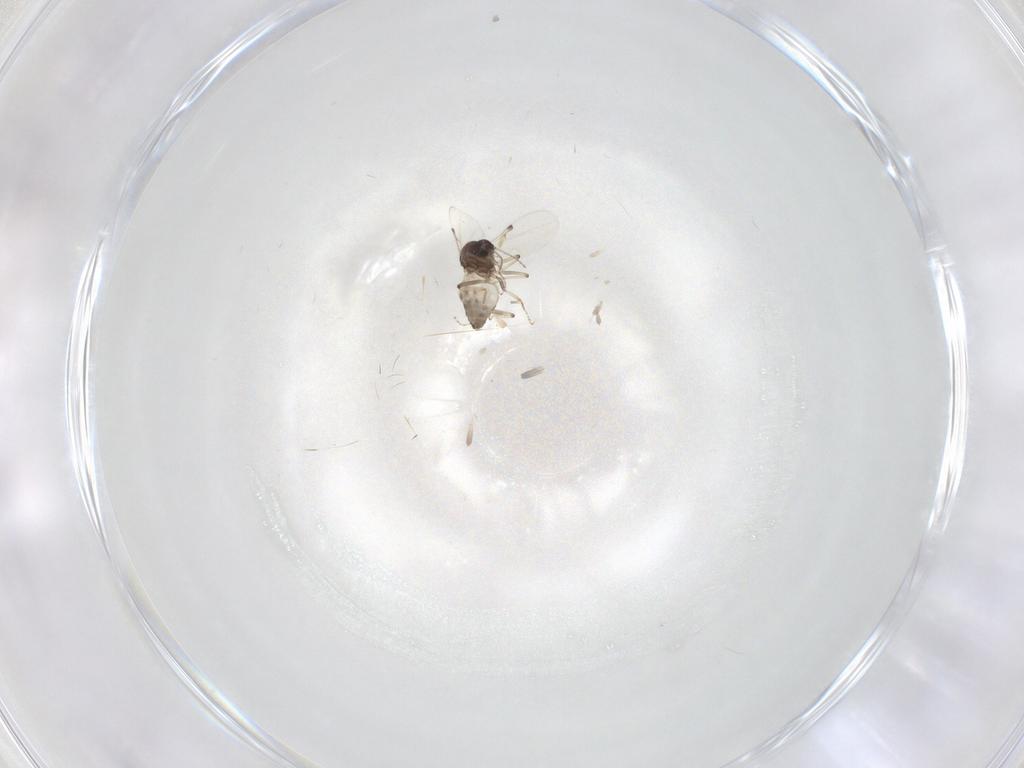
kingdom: Animalia
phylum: Arthropoda
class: Insecta
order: Diptera
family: Ceratopogonidae
